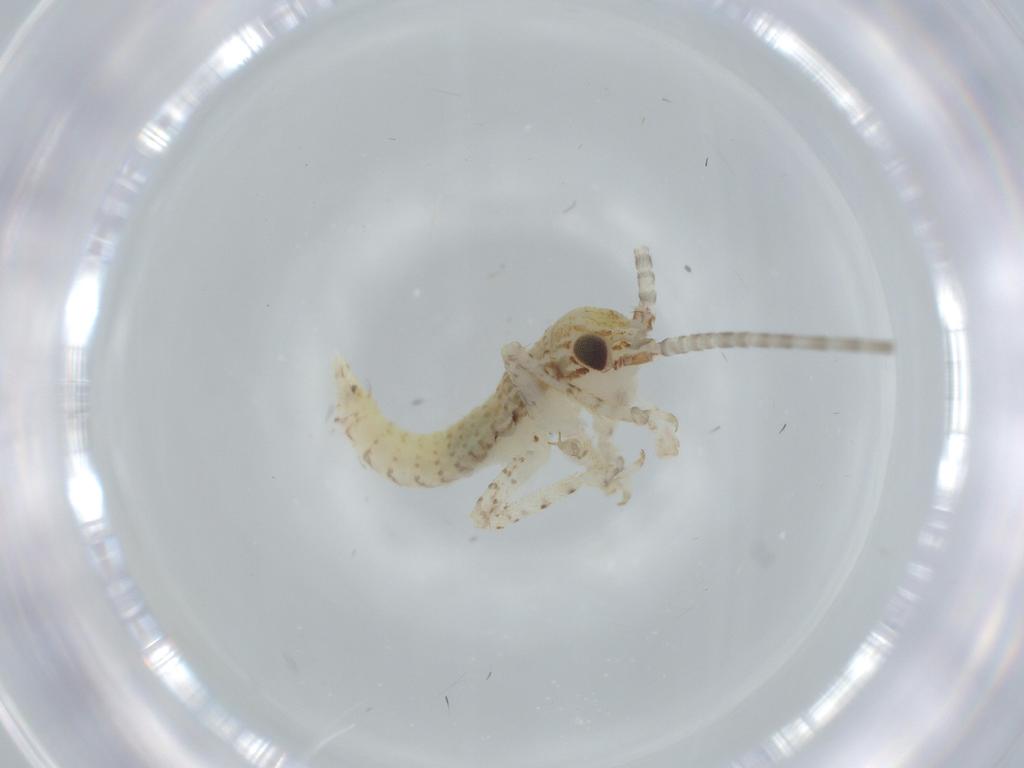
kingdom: Animalia
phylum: Arthropoda
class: Insecta
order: Orthoptera
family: Gryllidae
